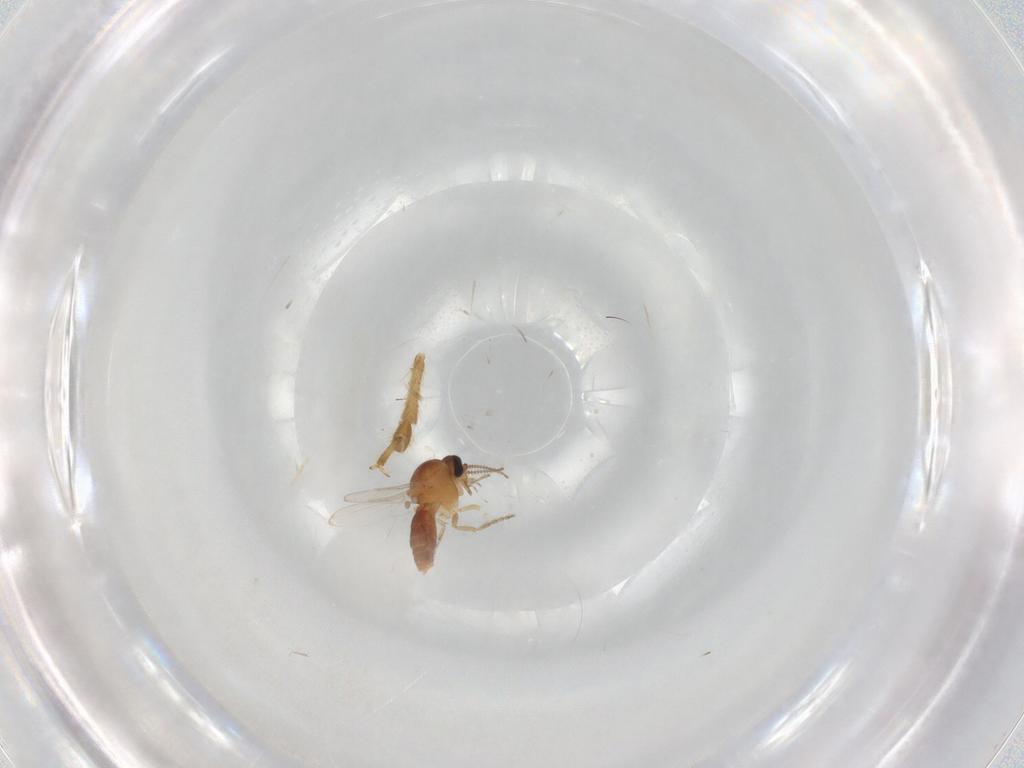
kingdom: Animalia
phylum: Arthropoda
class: Insecta
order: Diptera
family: Ceratopogonidae
